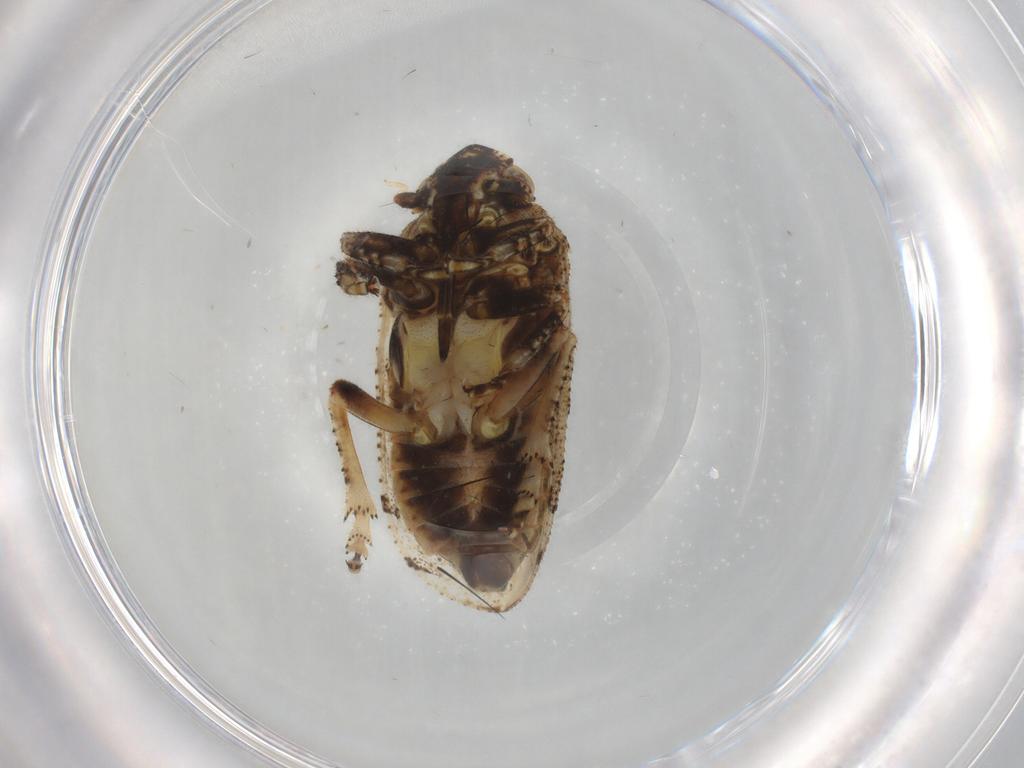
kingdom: Animalia
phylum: Arthropoda
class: Insecta
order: Hemiptera
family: Tettigometridae
